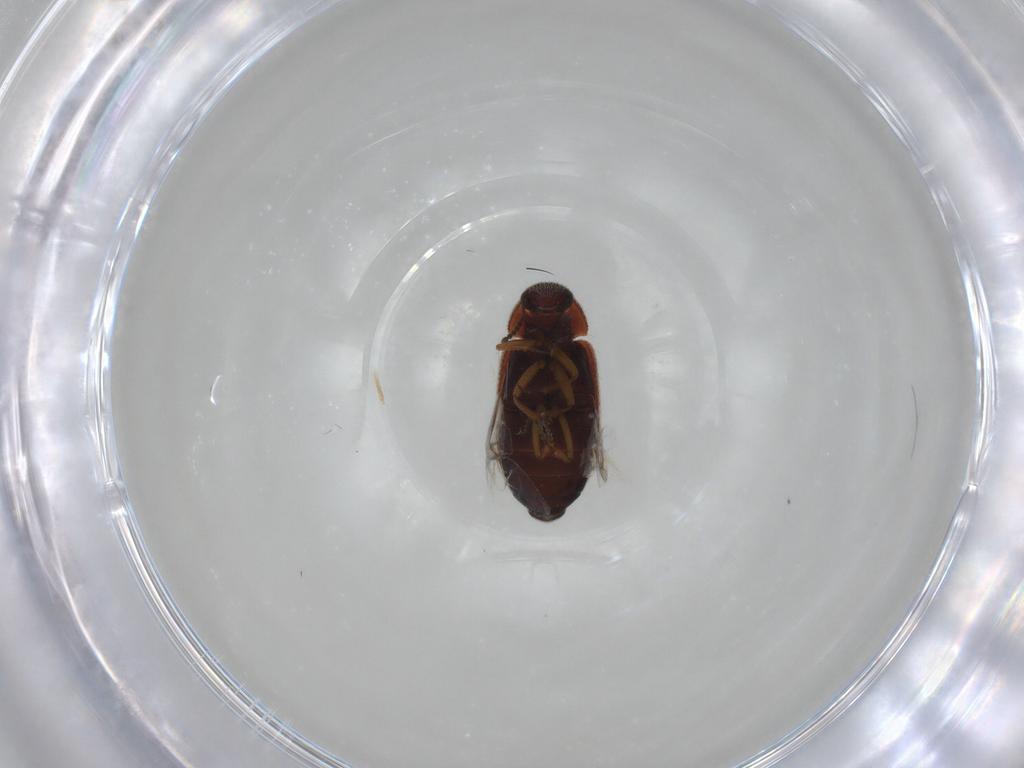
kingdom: Animalia
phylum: Arthropoda
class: Insecta
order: Coleoptera
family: Rhadalidae
